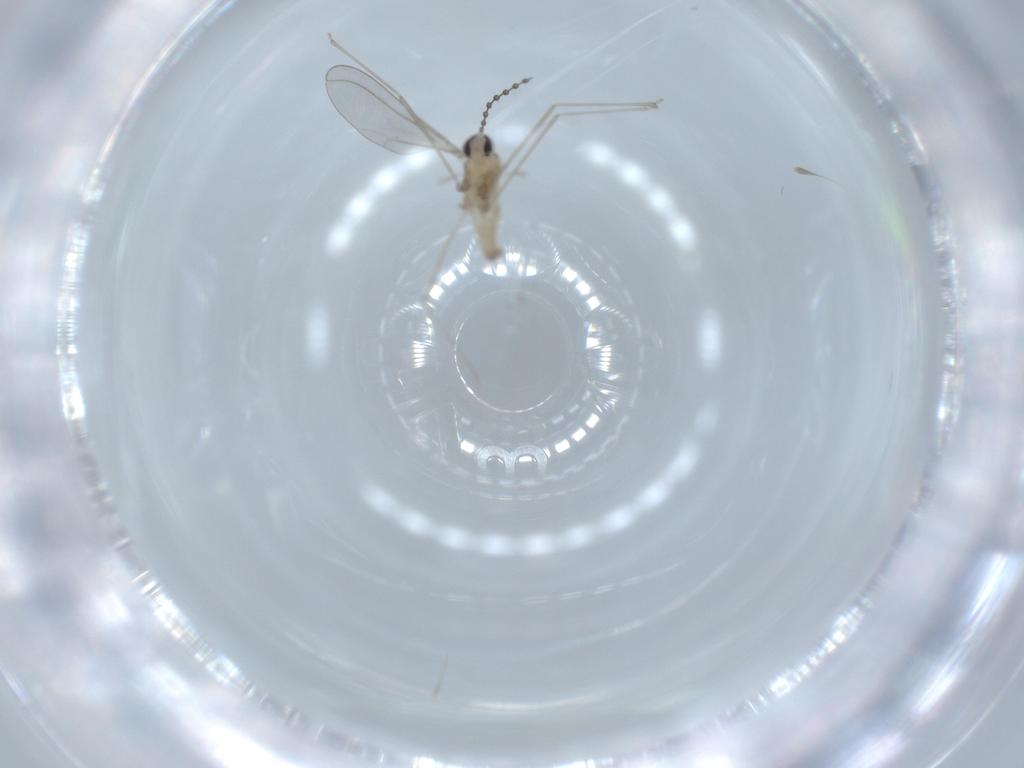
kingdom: Animalia
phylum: Arthropoda
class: Insecta
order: Diptera
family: Cecidomyiidae
